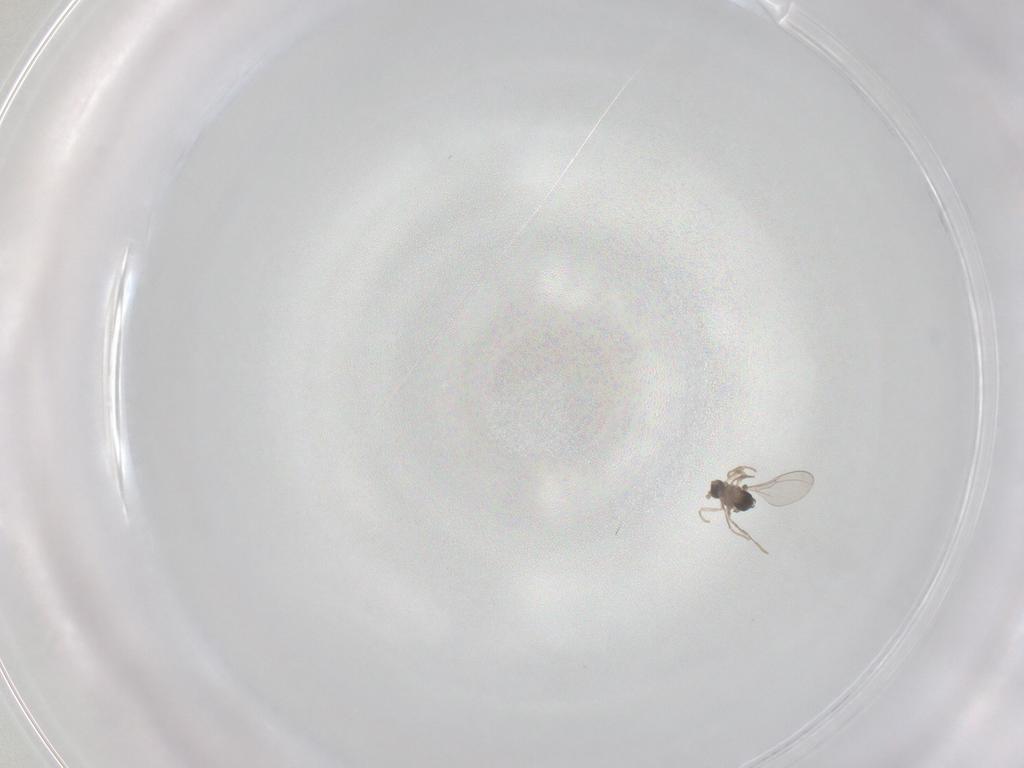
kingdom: Animalia
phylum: Arthropoda
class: Insecta
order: Diptera
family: Cecidomyiidae
